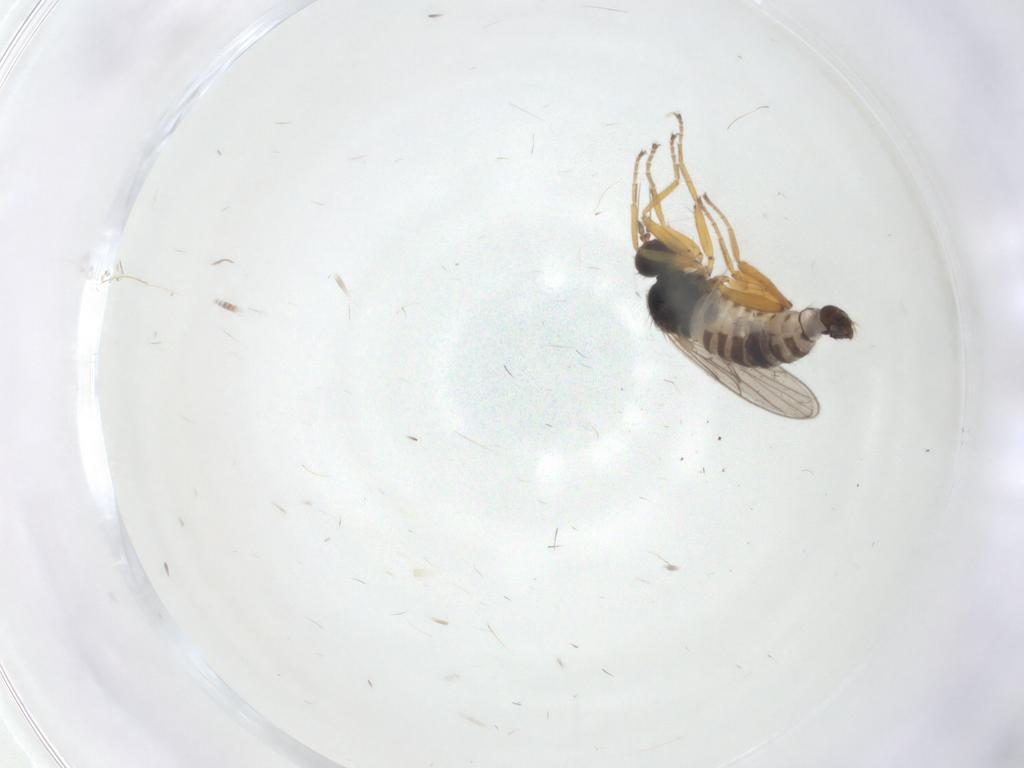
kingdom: Animalia
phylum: Arthropoda
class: Insecta
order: Diptera
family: Hybotidae
